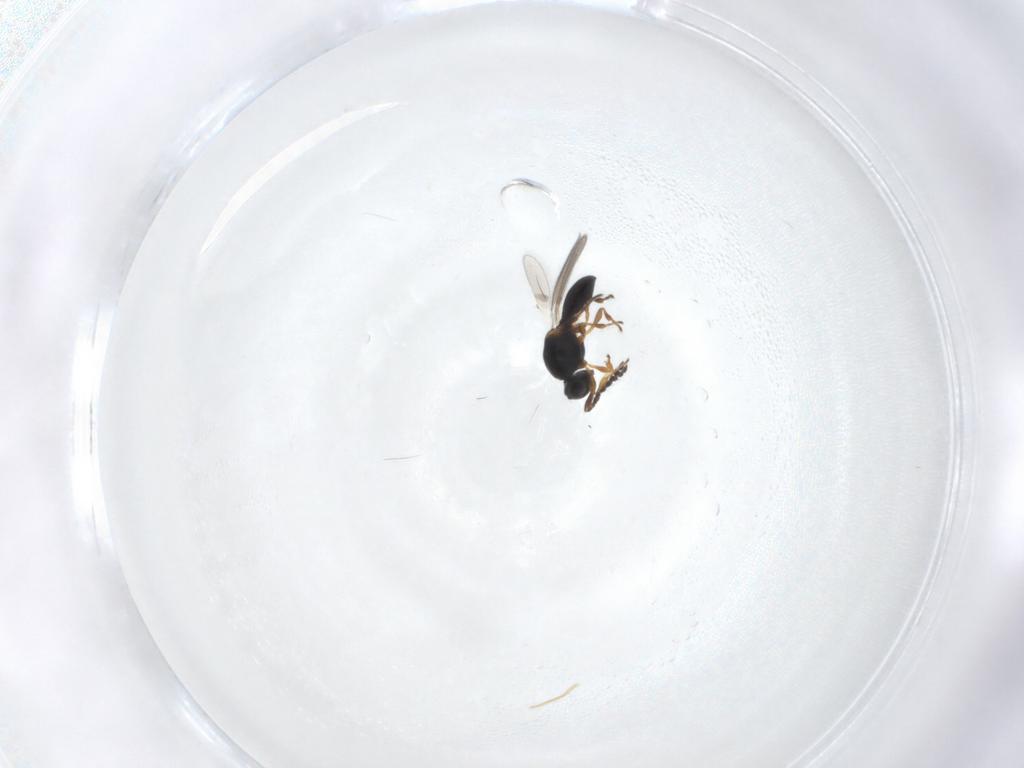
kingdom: Animalia
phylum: Arthropoda
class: Insecta
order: Hymenoptera
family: Platygastridae
